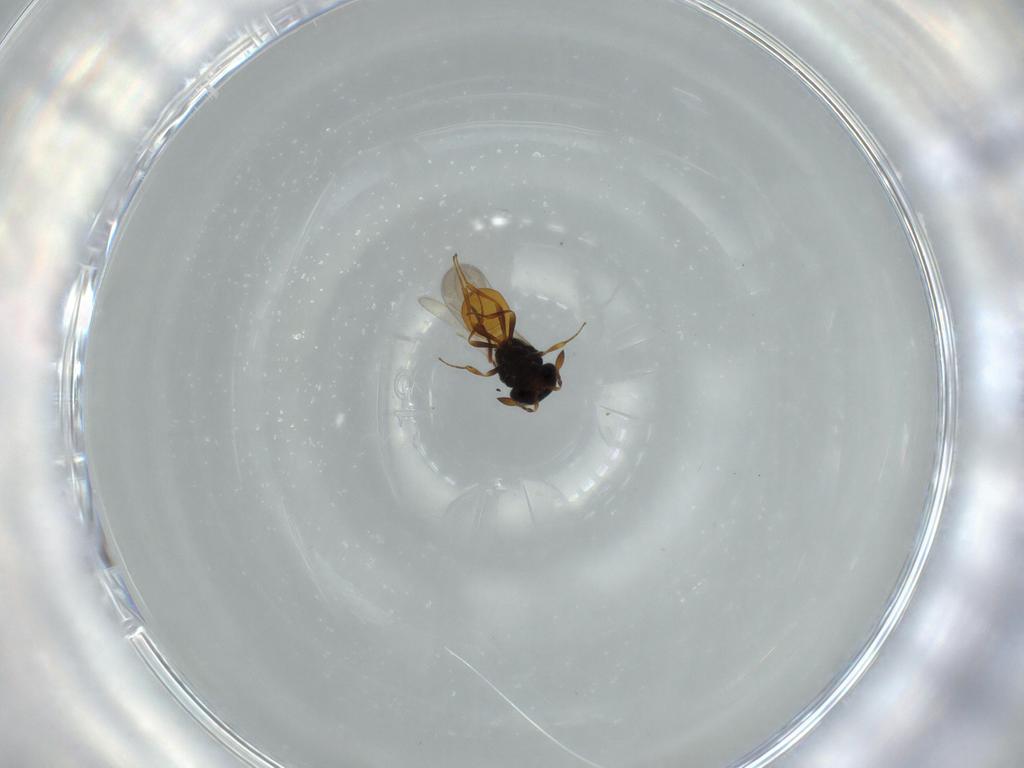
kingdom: Animalia
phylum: Arthropoda
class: Insecta
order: Hymenoptera
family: Scelionidae
